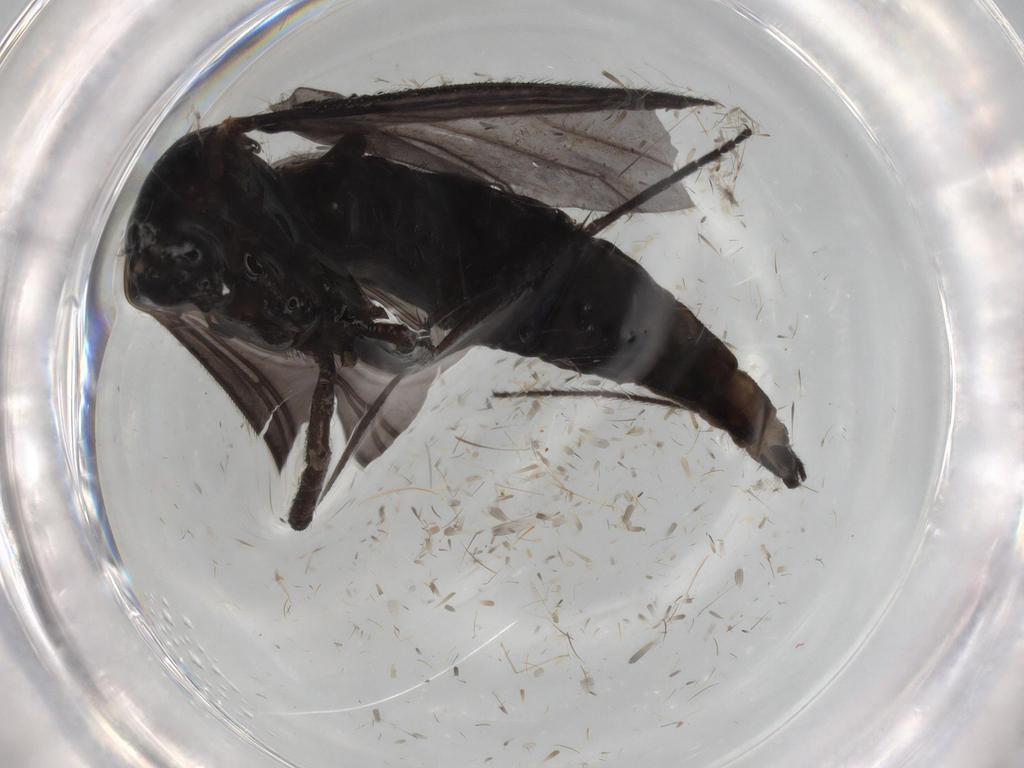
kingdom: Animalia
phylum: Arthropoda
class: Insecta
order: Diptera
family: Sciaridae
